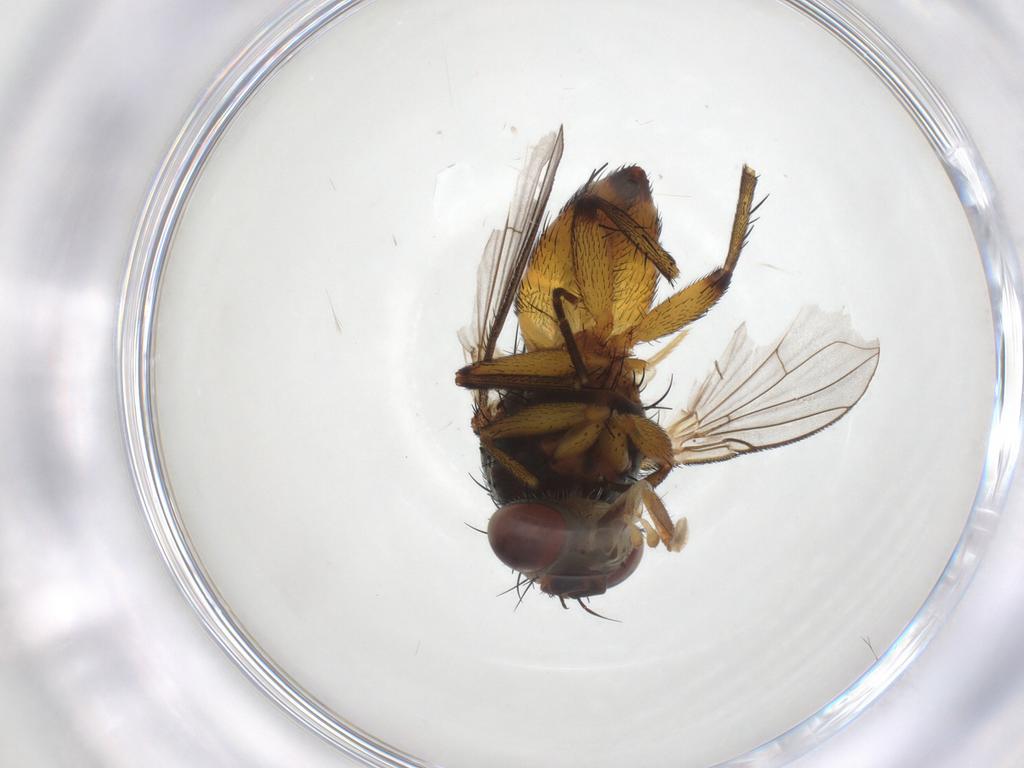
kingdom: Animalia
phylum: Arthropoda
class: Insecta
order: Diptera
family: Tachinidae
